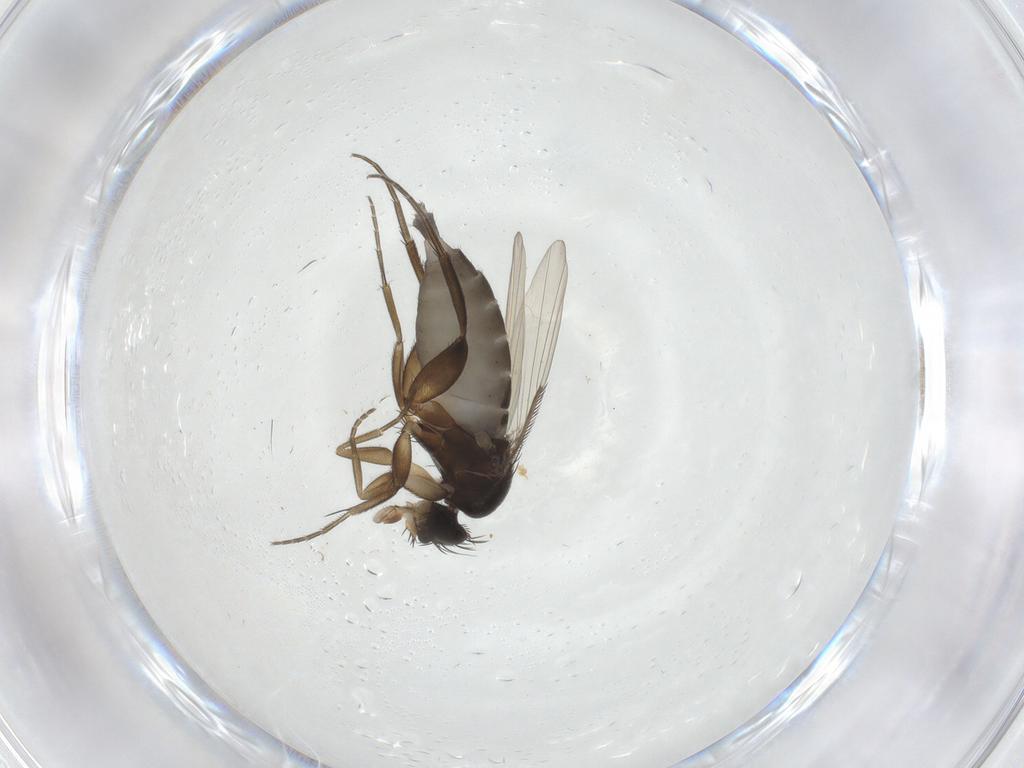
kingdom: Animalia
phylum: Arthropoda
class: Insecta
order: Diptera
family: Phoridae
